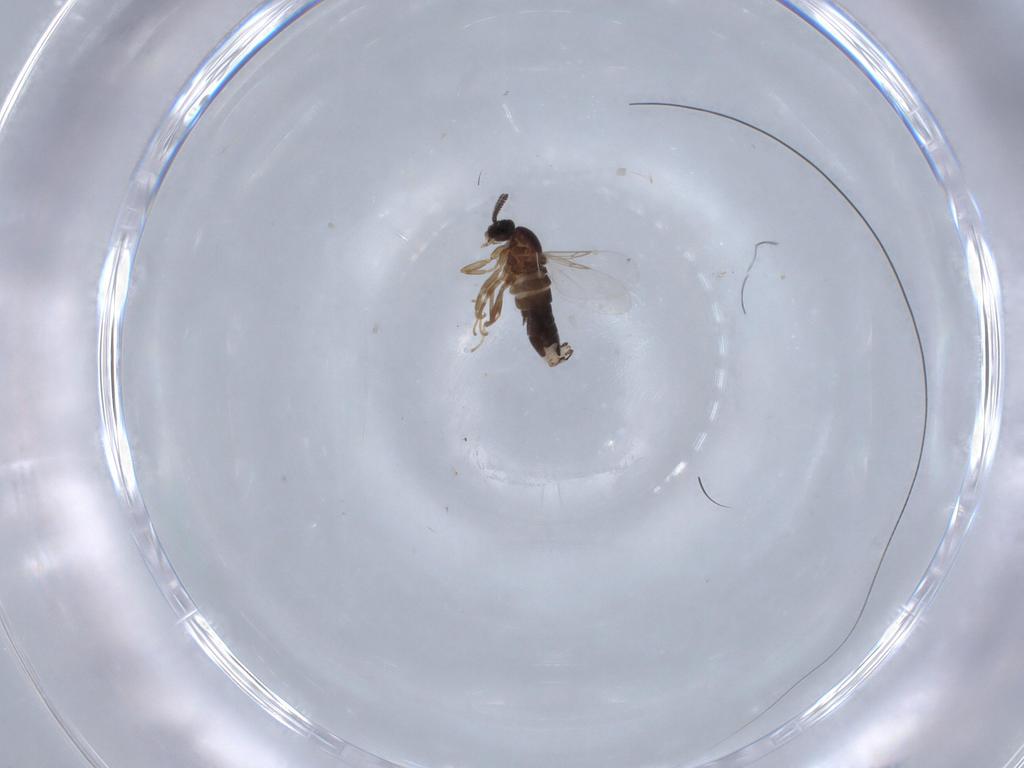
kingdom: Animalia
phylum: Arthropoda
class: Insecta
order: Diptera
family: Scatopsidae
